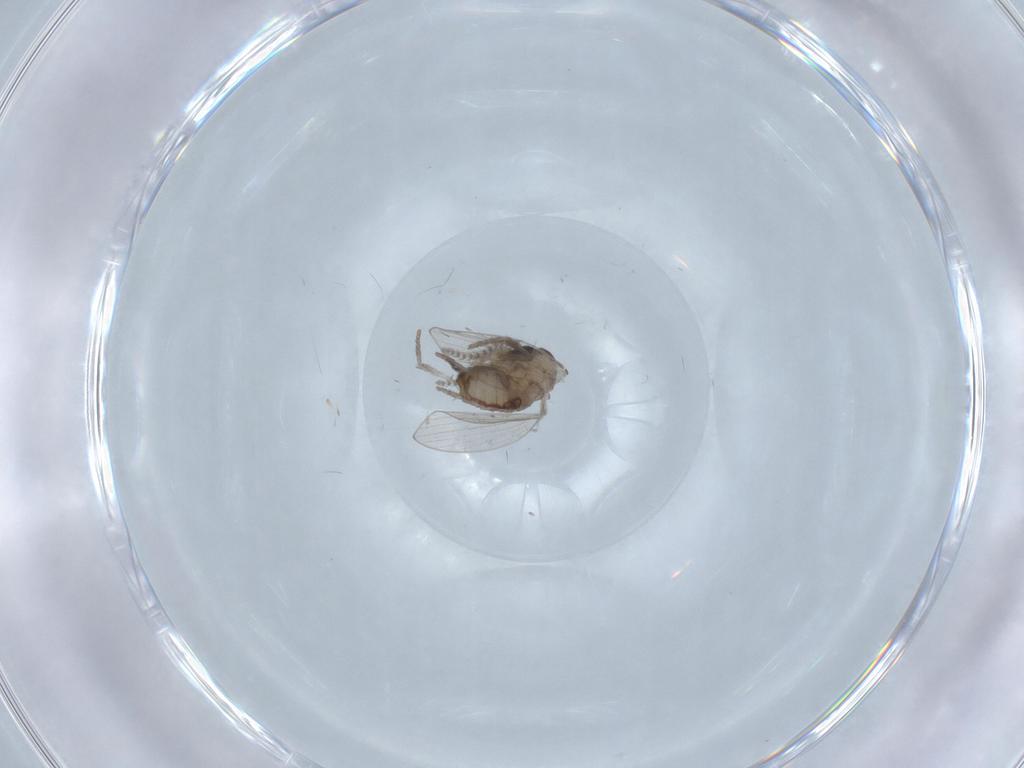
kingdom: Animalia
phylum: Arthropoda
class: Insecta
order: Diptera
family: Psychodidae
